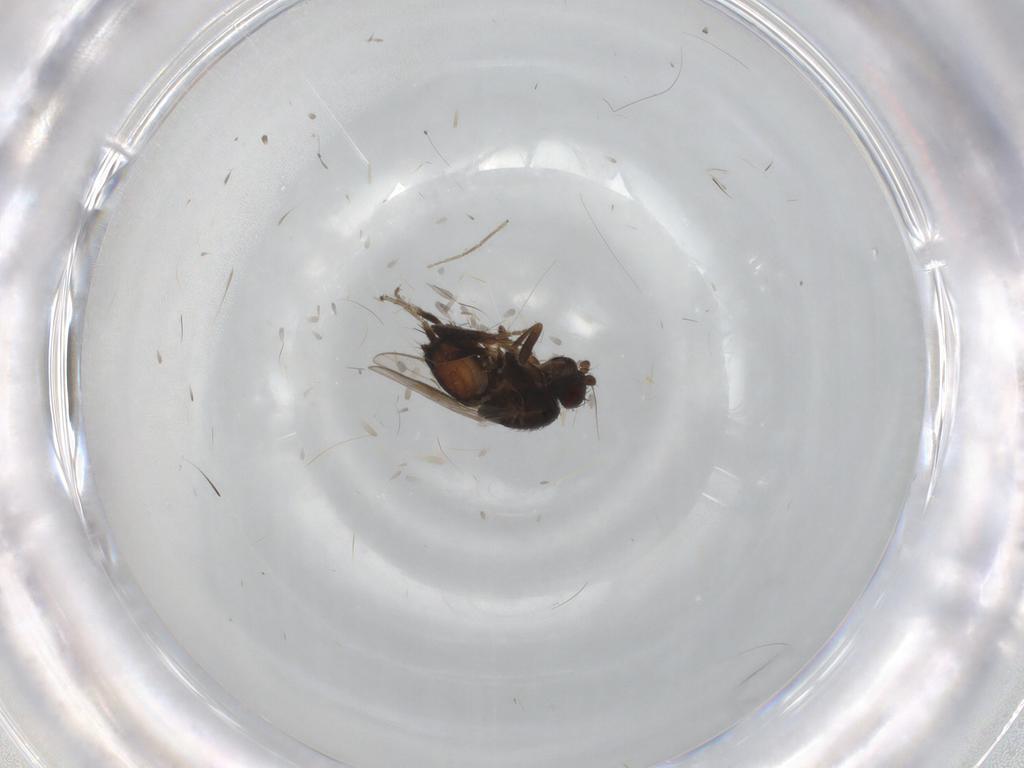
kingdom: Animalia
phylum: Arthropoda
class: Insecta
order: Diptera
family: Sphaeroceridae
